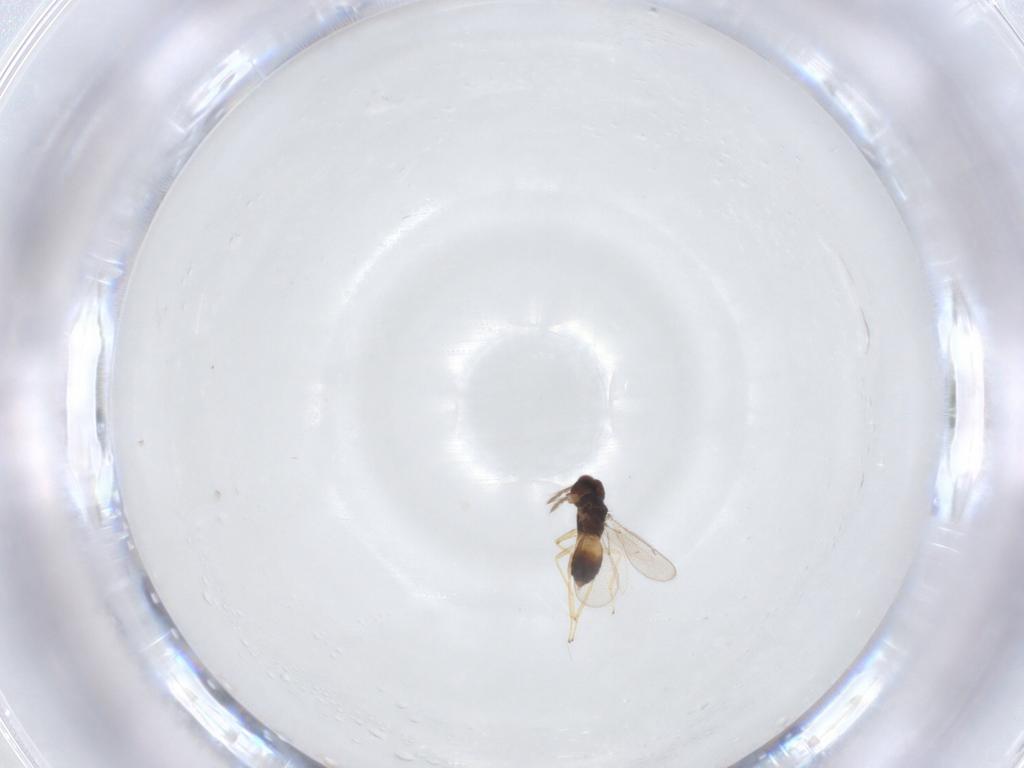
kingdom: Animalia
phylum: Arthropoda
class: Insecta
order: Hymenoptera
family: Eulophidae
